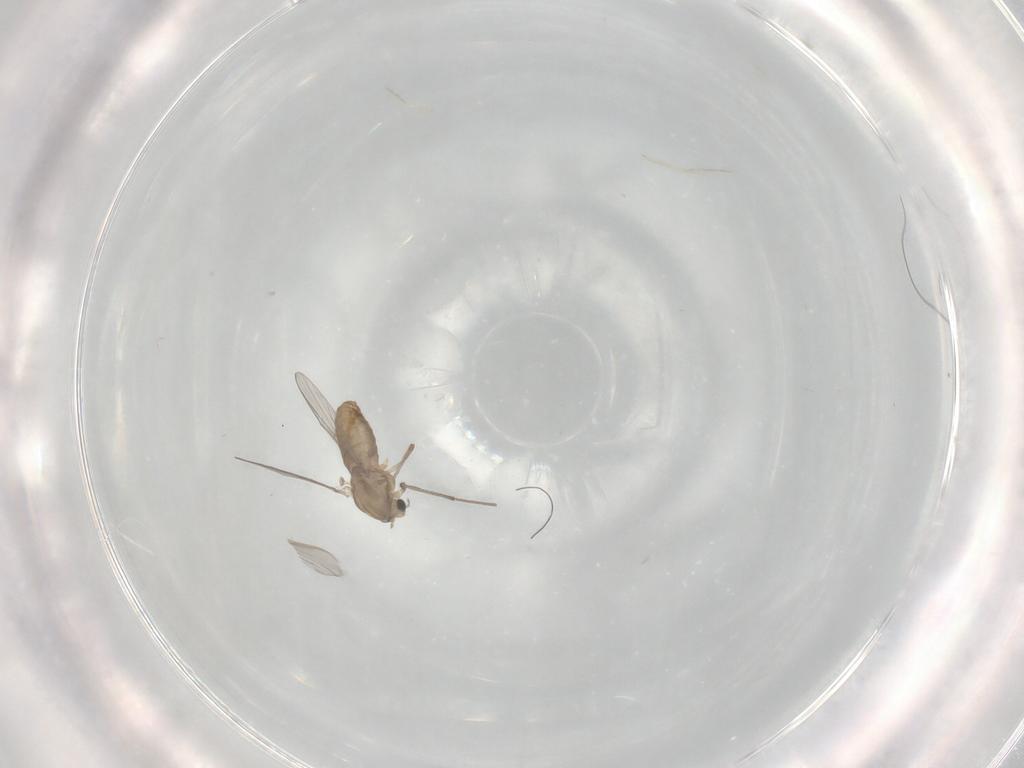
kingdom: Animalia
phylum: Arthropoda
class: Insecta
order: Diptera
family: Chironomidae
